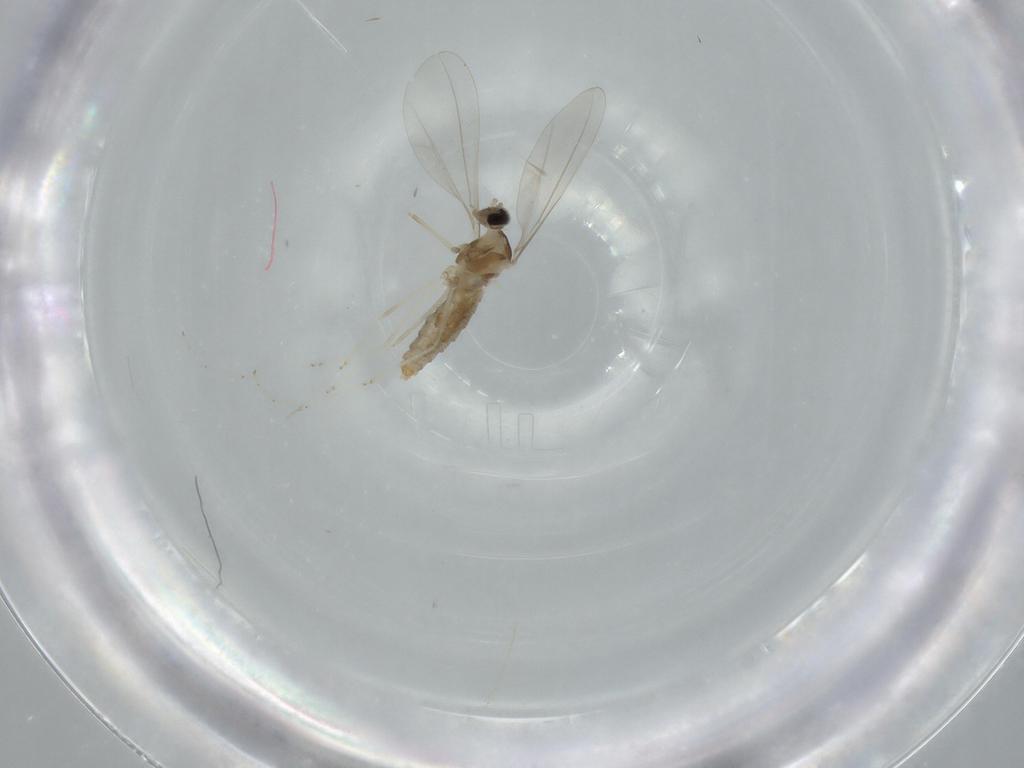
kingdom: Animalia
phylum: Arthropoda
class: Insecta
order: Diptera
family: Cecidomyiidae
